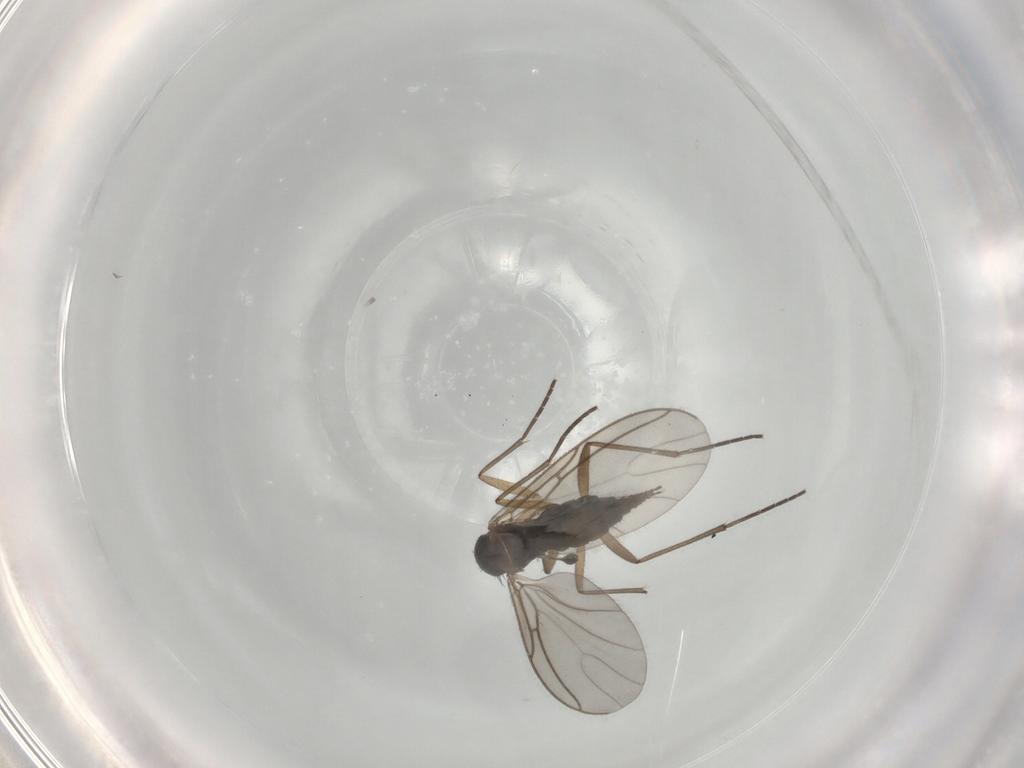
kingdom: Animalia
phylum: Arthropoda
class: Insecta
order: Diptera
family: Sciaridae
